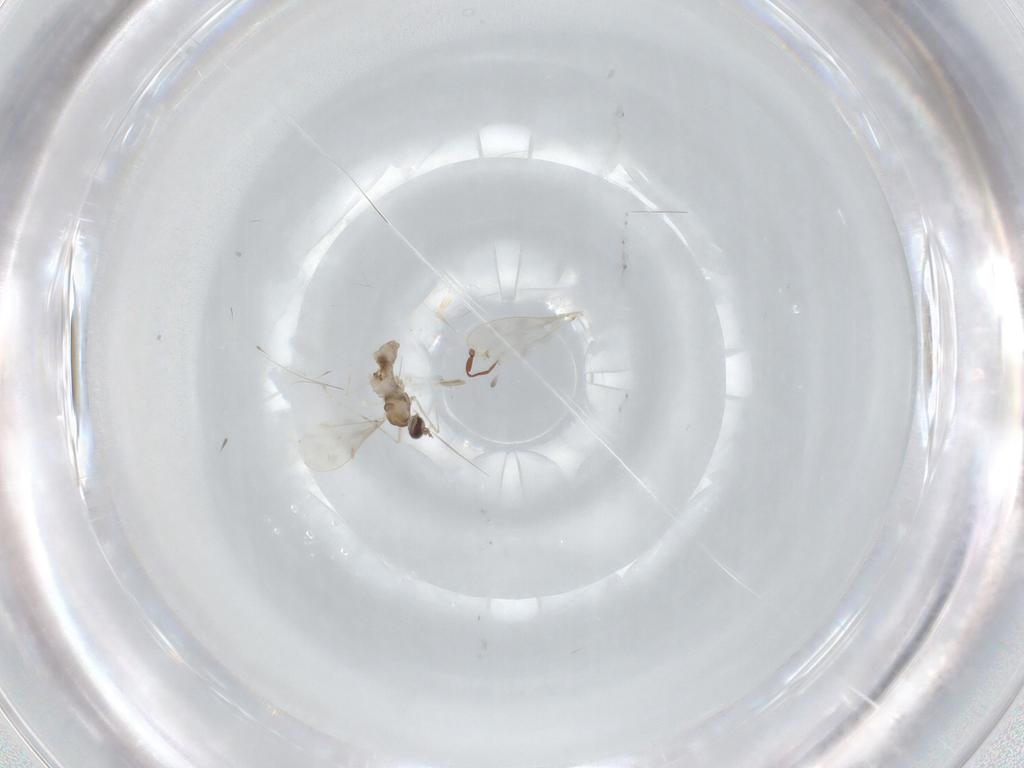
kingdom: Animalia
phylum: Arthropoda
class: Insecta
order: Diptera
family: Cecidomyiidae
